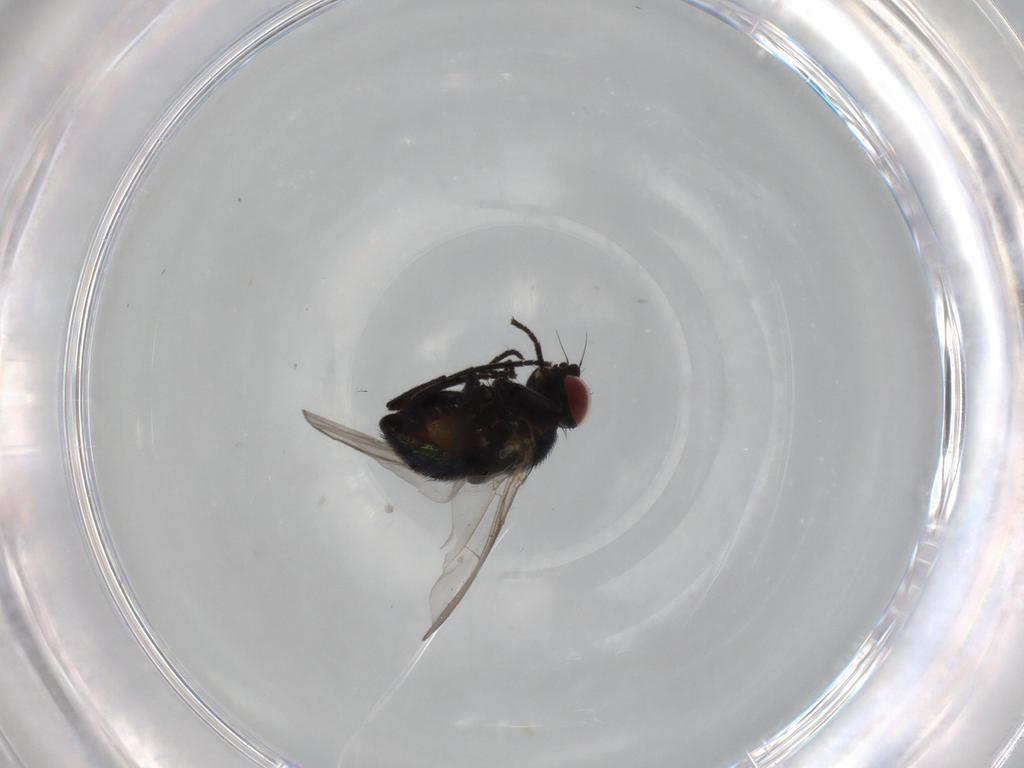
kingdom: Animalia
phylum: Arthropoda
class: Insecta
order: Diptera
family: Agromyzidae
